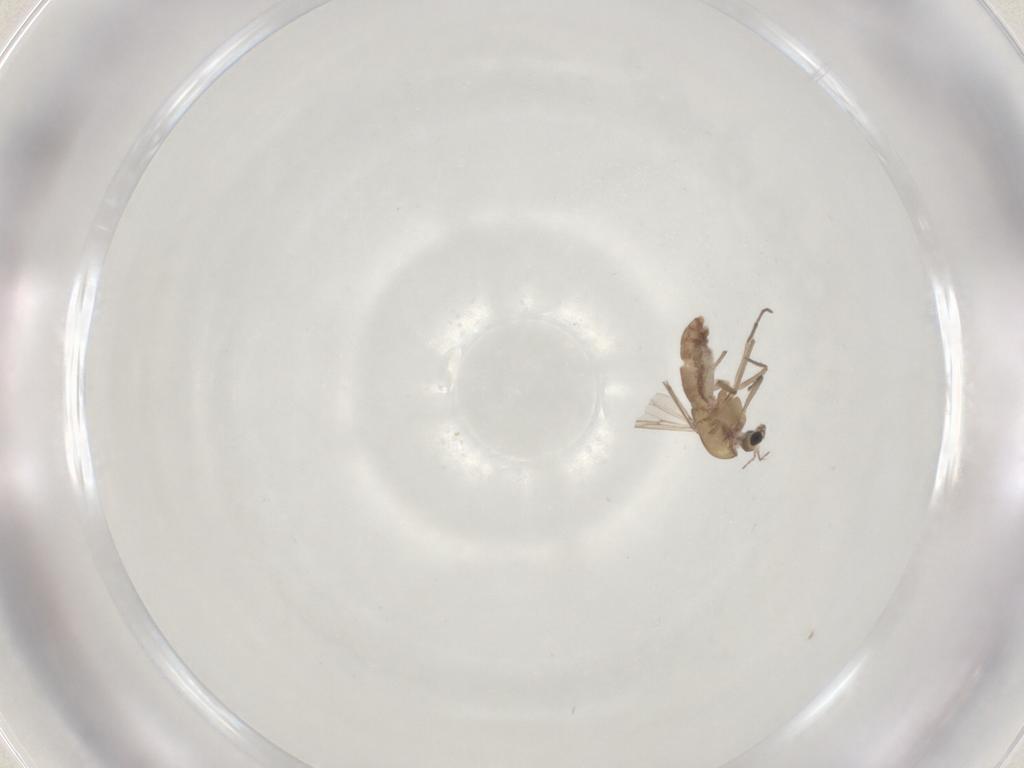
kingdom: Animalia
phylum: Arthropoda
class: Insecta
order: Diptera
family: Chironomidae
